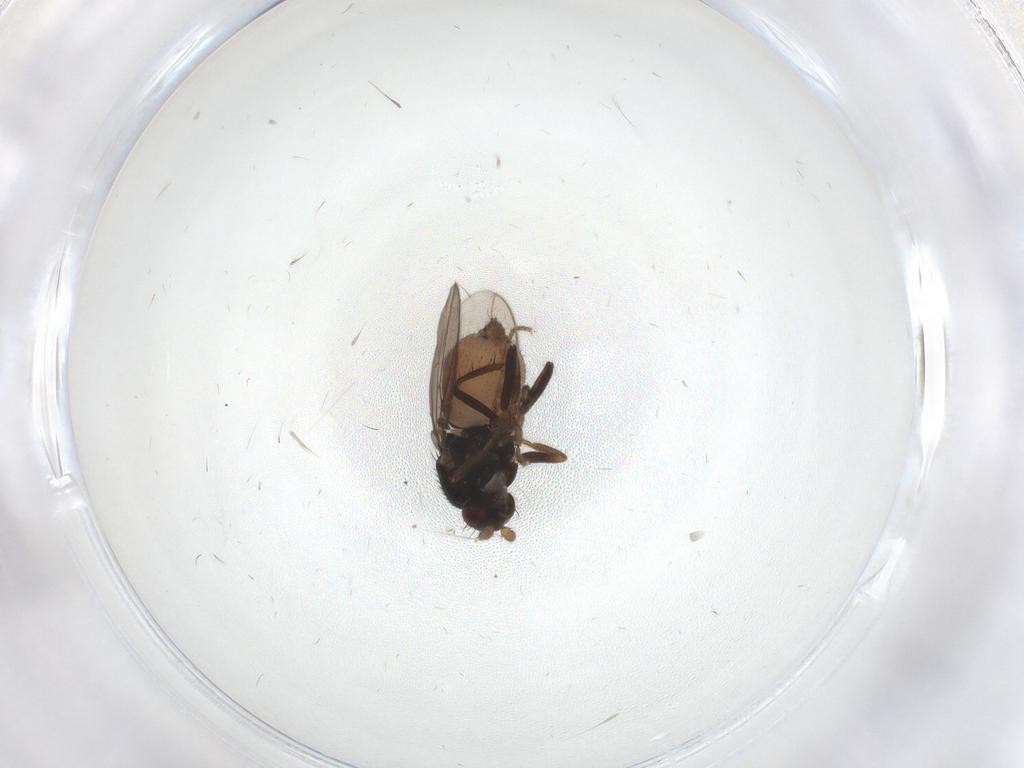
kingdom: Animalia
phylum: Arthropoda
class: Insecta
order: Diptera
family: Sphaeroceridae
